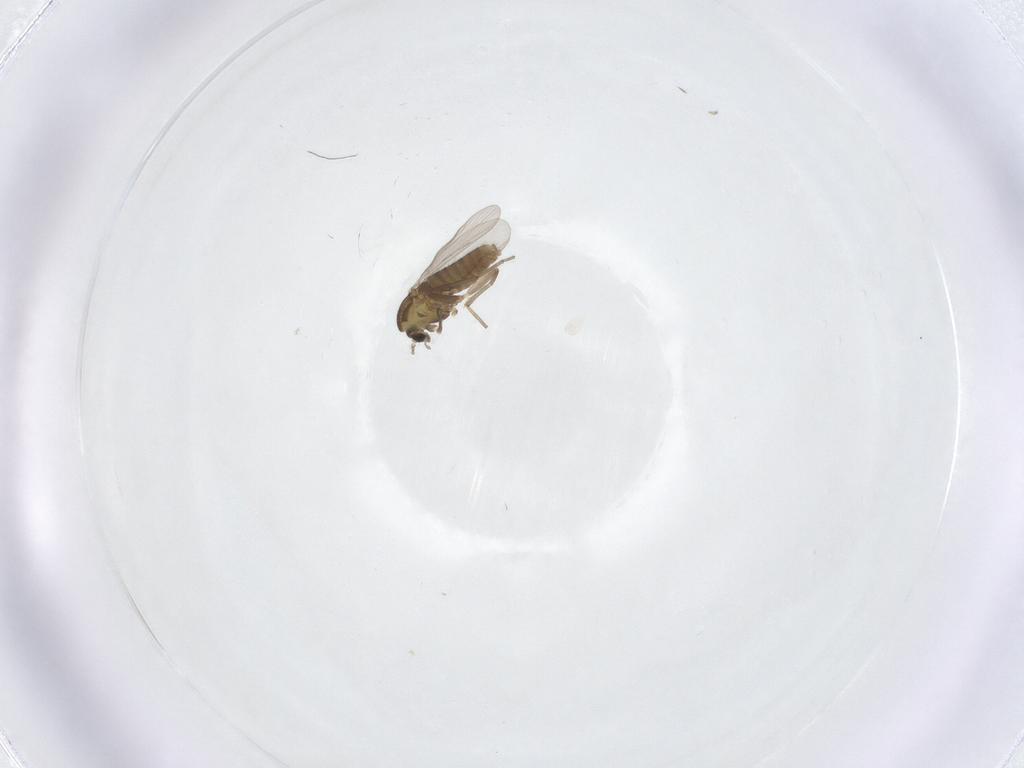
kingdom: Animalia
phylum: Arthropoda
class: Insecta
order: Diptera
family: Chironomidae
